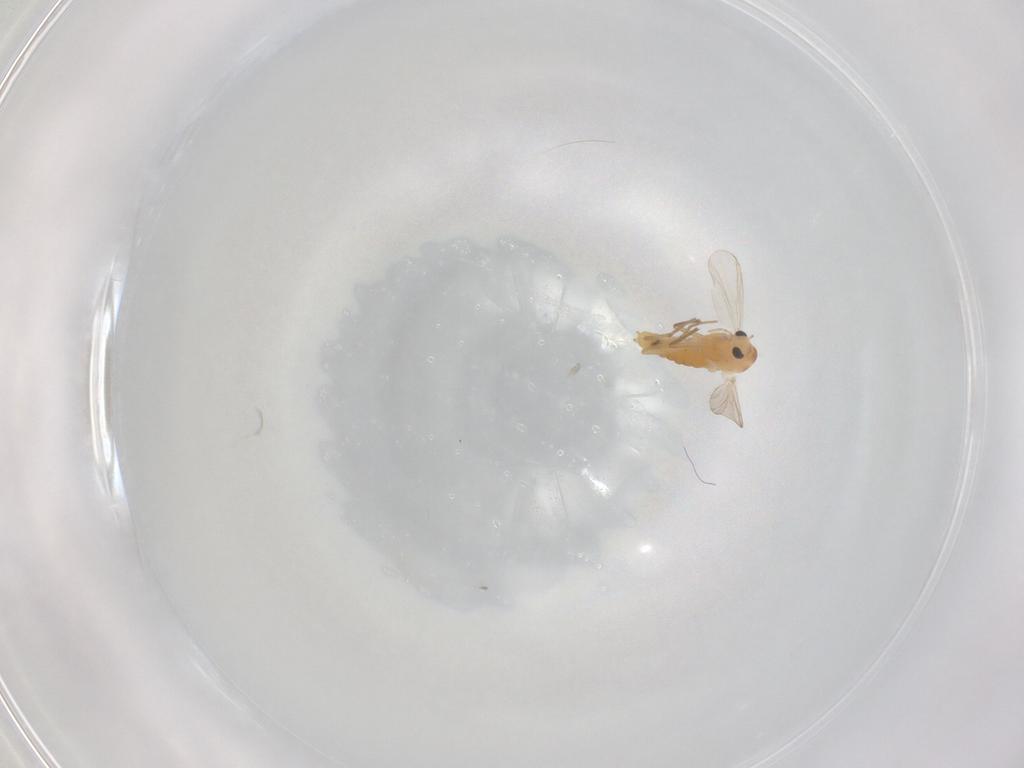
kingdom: Animalia
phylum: Arthropoda
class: Insecta
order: Diptera
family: Chironomidae
